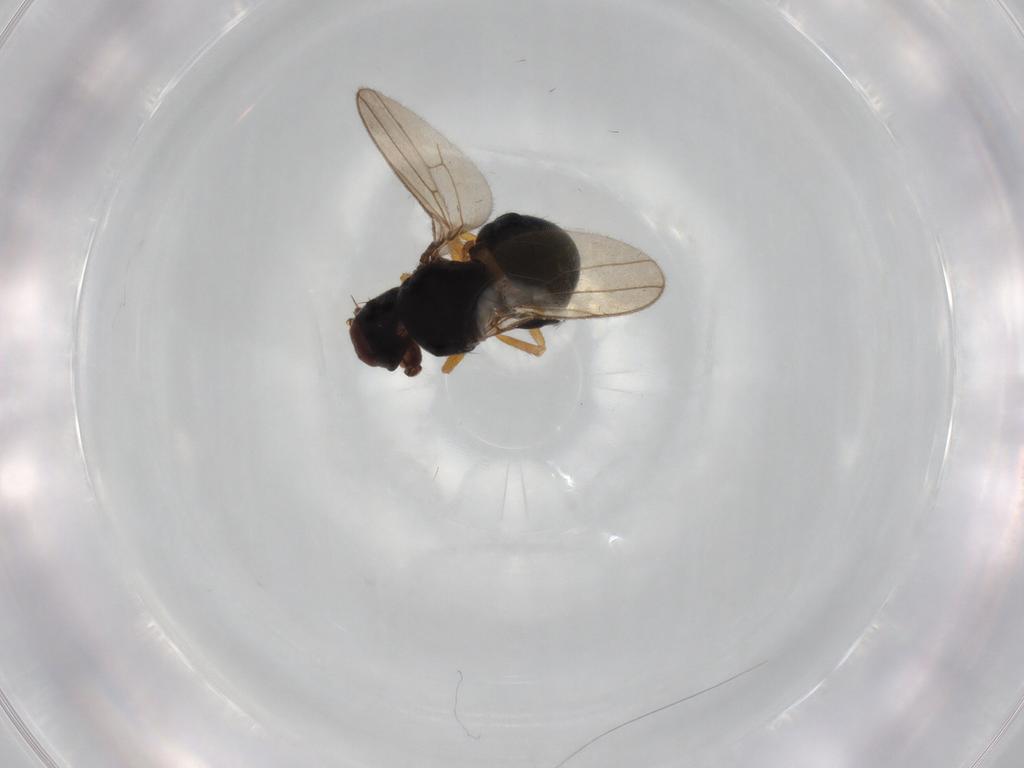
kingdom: Animalia
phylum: Arthropoda
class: Insecta
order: Diptera
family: Ephydridae
